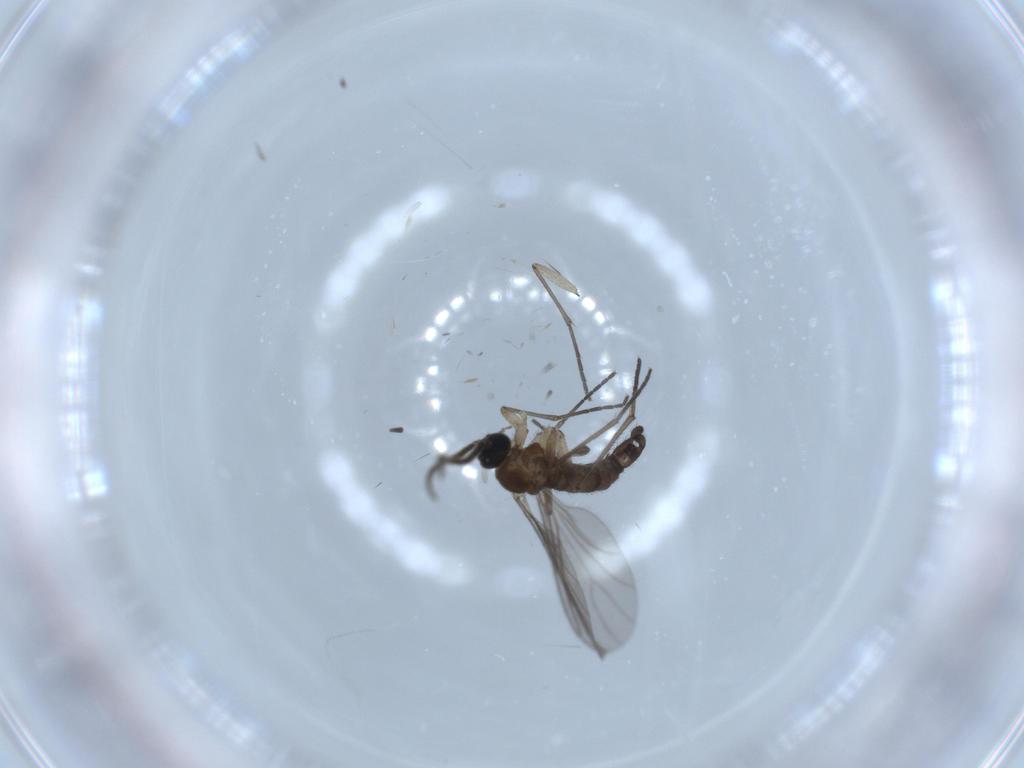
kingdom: Animalia
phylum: Arthropoda
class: Insecta
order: Diptera
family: Sciaridae
